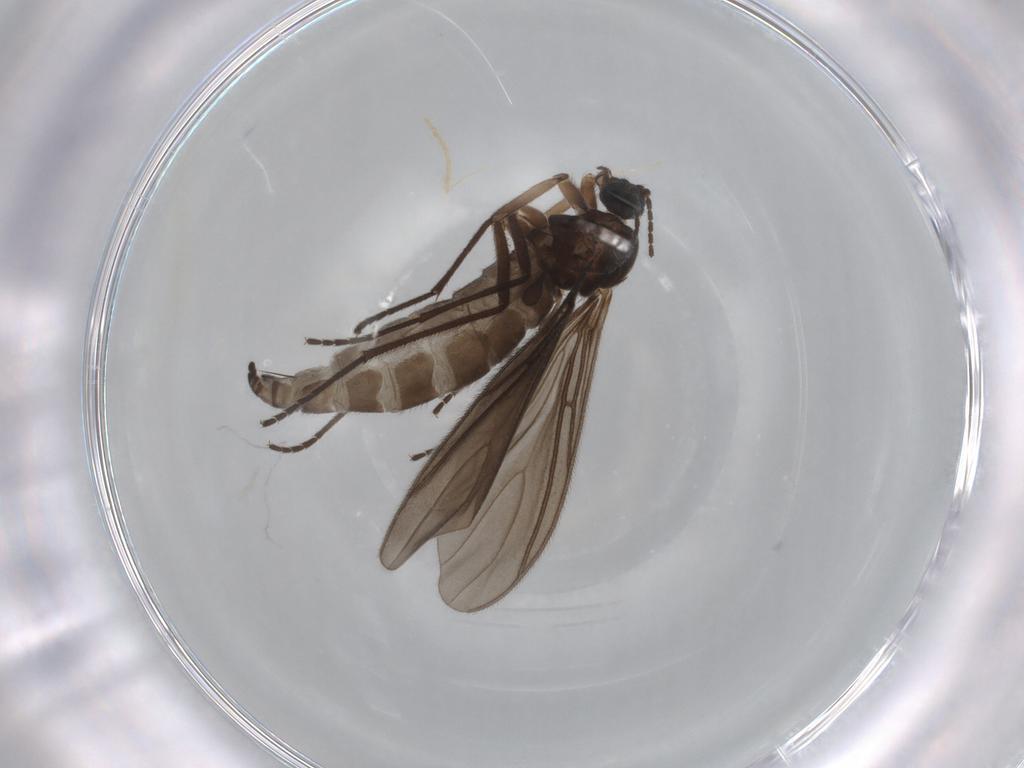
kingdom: Animalia
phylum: Arthropoda
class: Insecta
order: Diptera
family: Sciaridae
